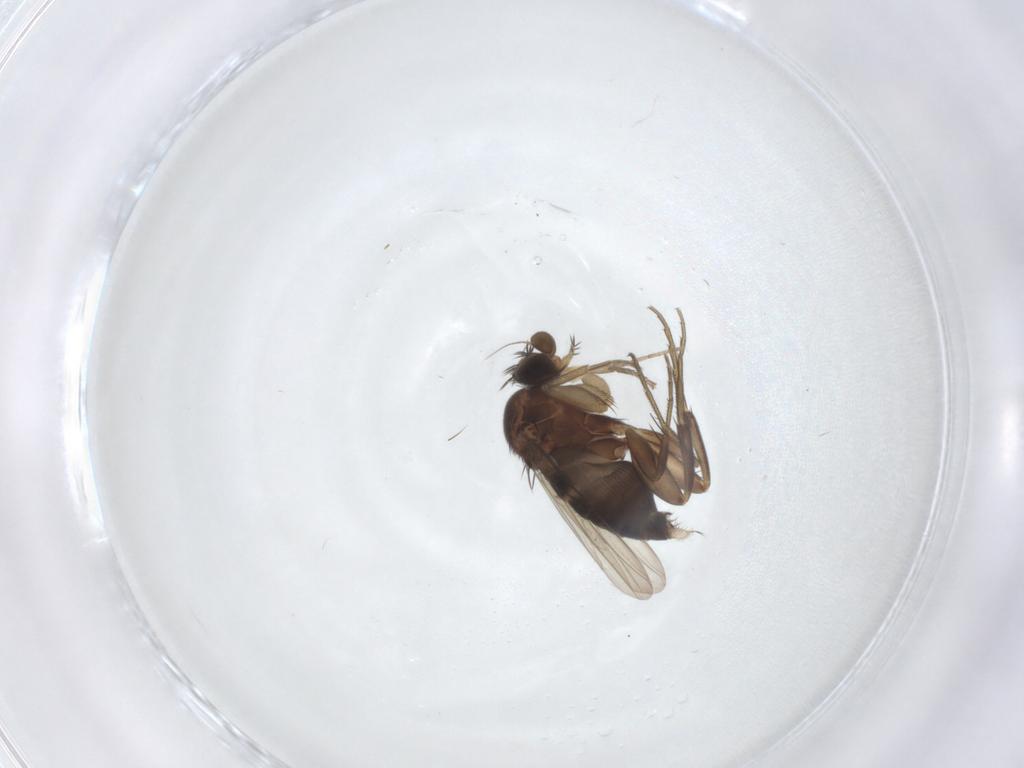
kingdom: Animalia
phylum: Arthropoda
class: Insecta
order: Diptera
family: Phoridae
